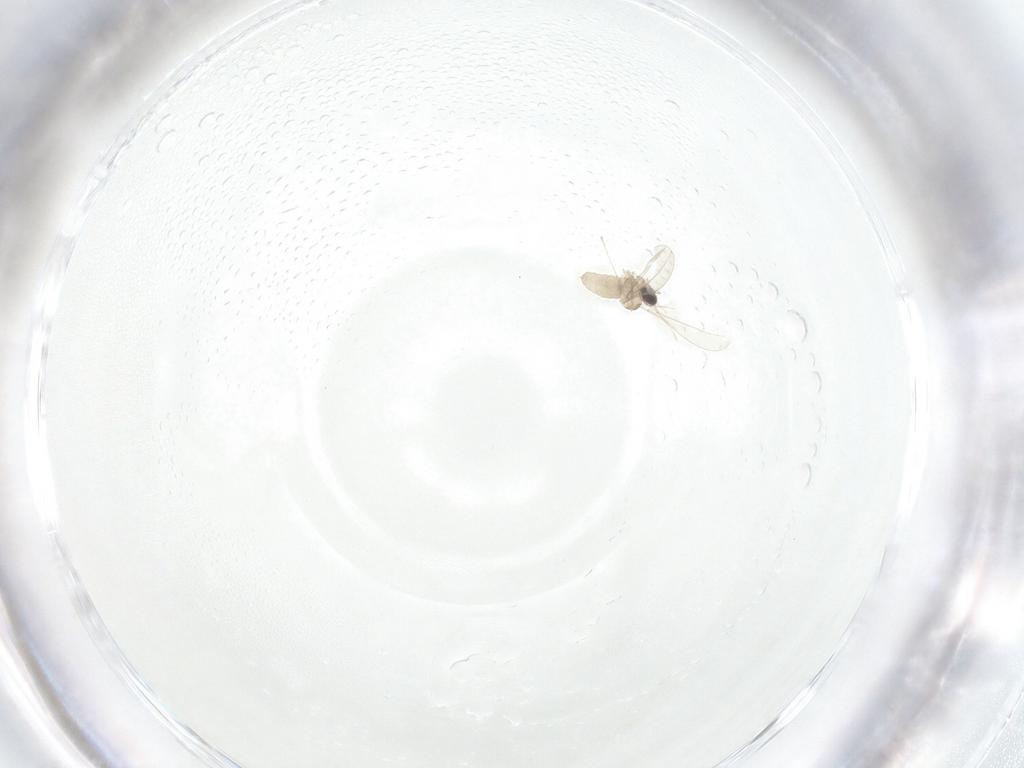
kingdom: Animalia
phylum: Arthropoda
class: Insecta
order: Diptera
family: Cecidomyiidae
